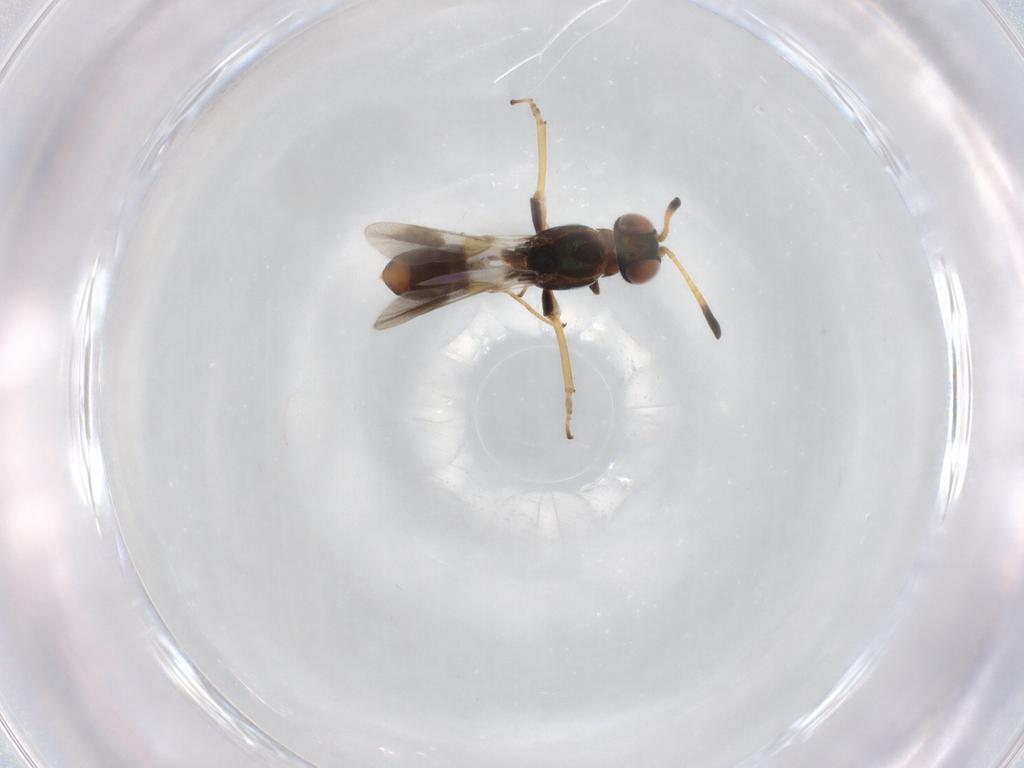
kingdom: Animalia
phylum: Arthropoda
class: Insecta
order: Hymenoptera
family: Eupelmidae
